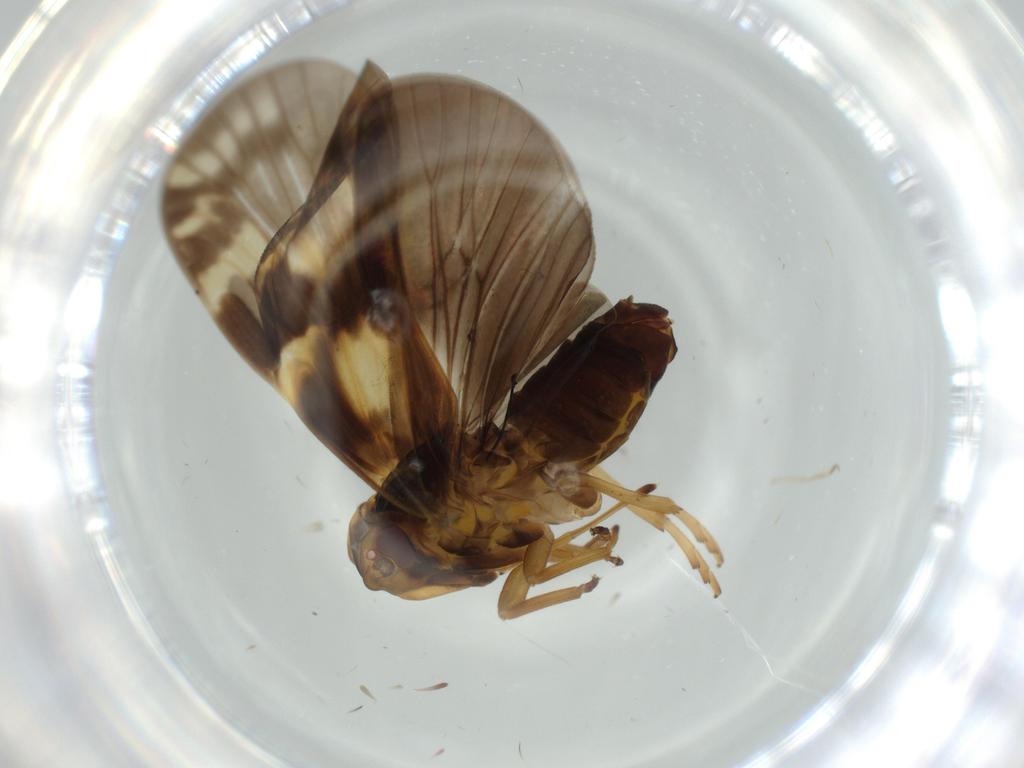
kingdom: Animalia
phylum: Arthropoda
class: Insecta
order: Hemiptera
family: Cixiidae
